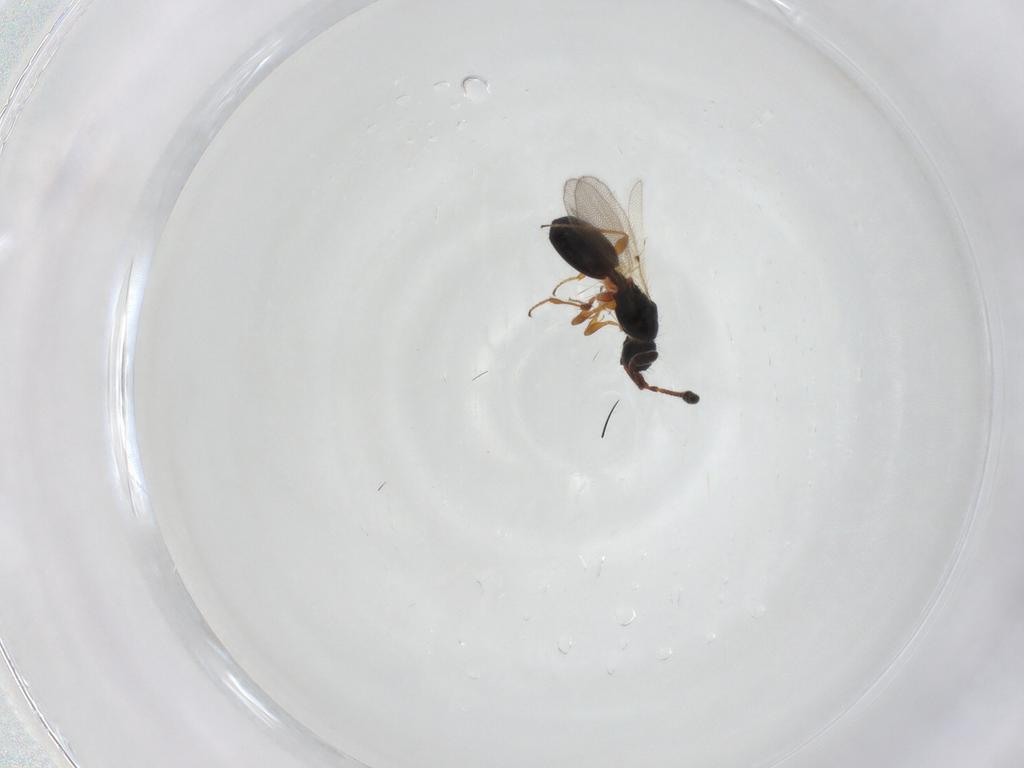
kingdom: Animalia
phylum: Arthropoda
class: Insecta
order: Hymenoptera
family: Diapriidae
